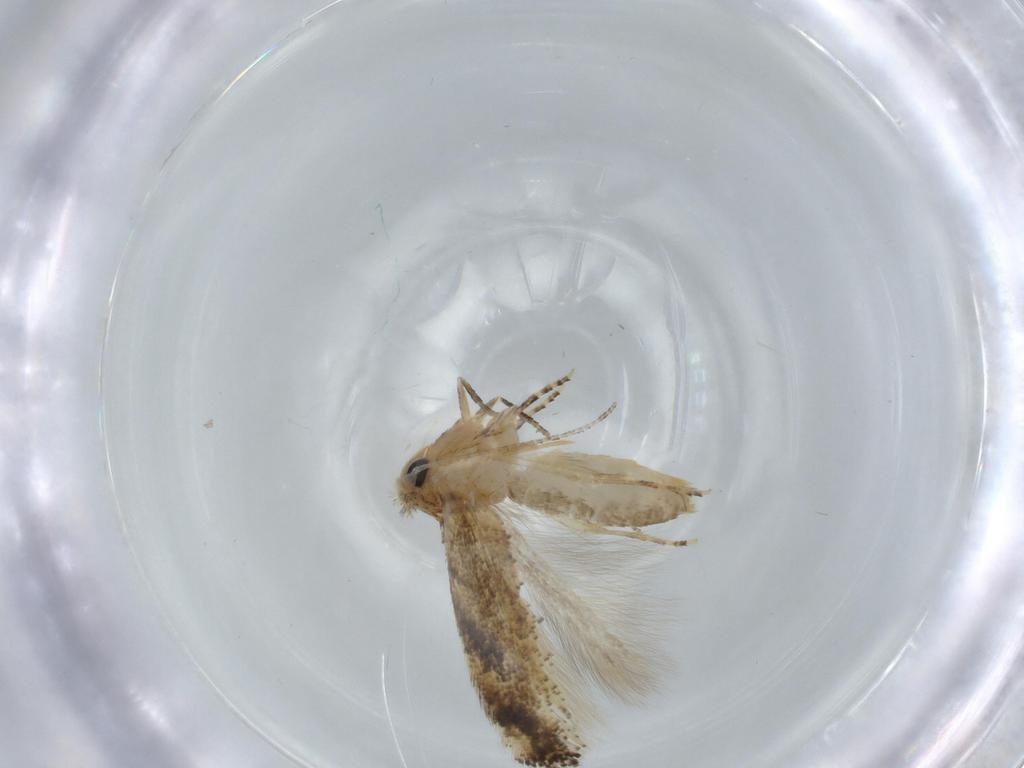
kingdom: Animalia
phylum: Arthropoda
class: Insecta
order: Lepidoptera
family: Bucculatricidae
